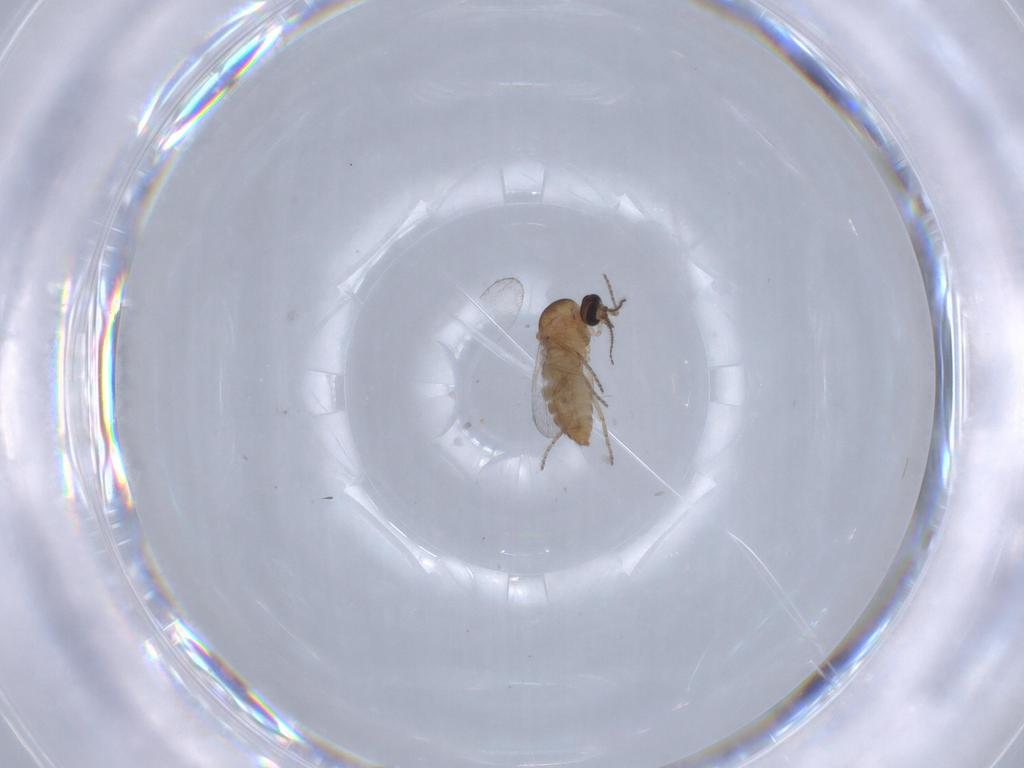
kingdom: Animalia
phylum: Arthropoda
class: Insecta
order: Diptera
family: Ceratopogonidae
